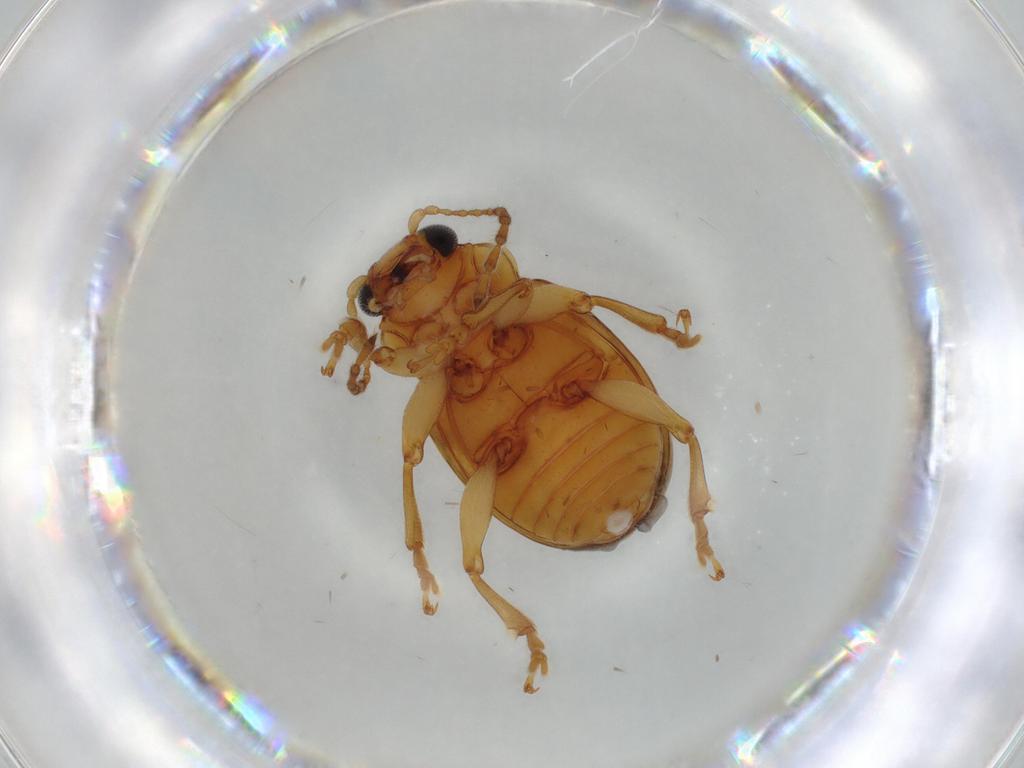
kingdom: Animalia
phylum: Arthropoda
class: Insecta
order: Coleoptera
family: Chrysomelidae
